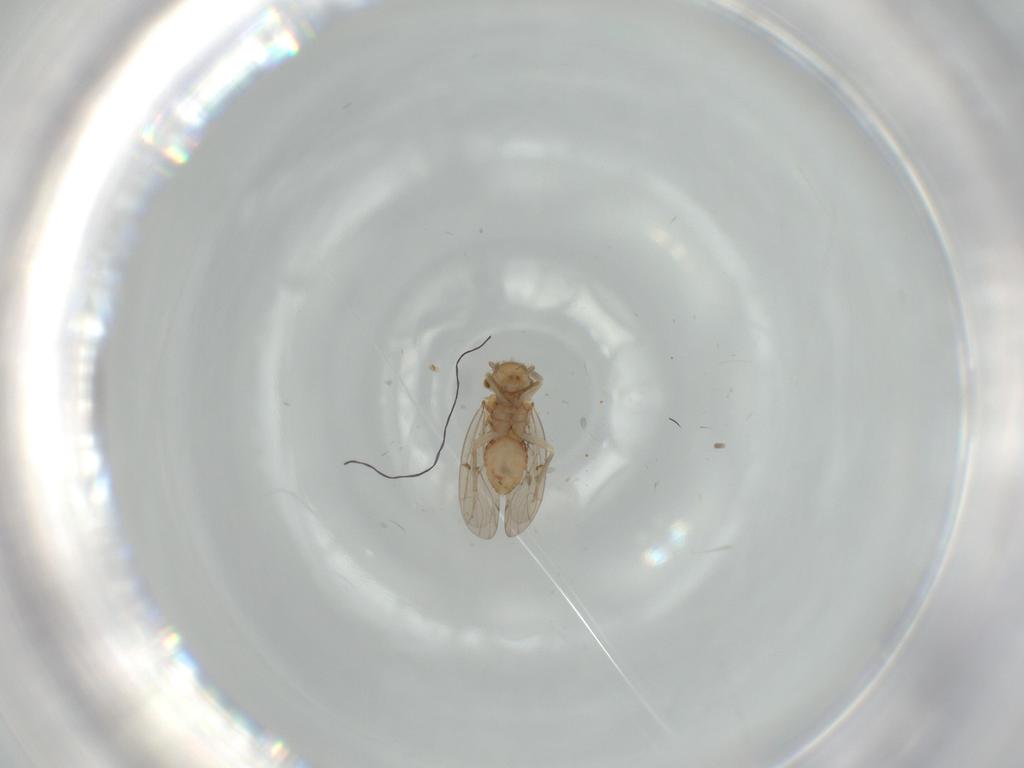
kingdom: Animalia
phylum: Arthropoda
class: Insecta
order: Psocodea
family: Ectopsocidae
